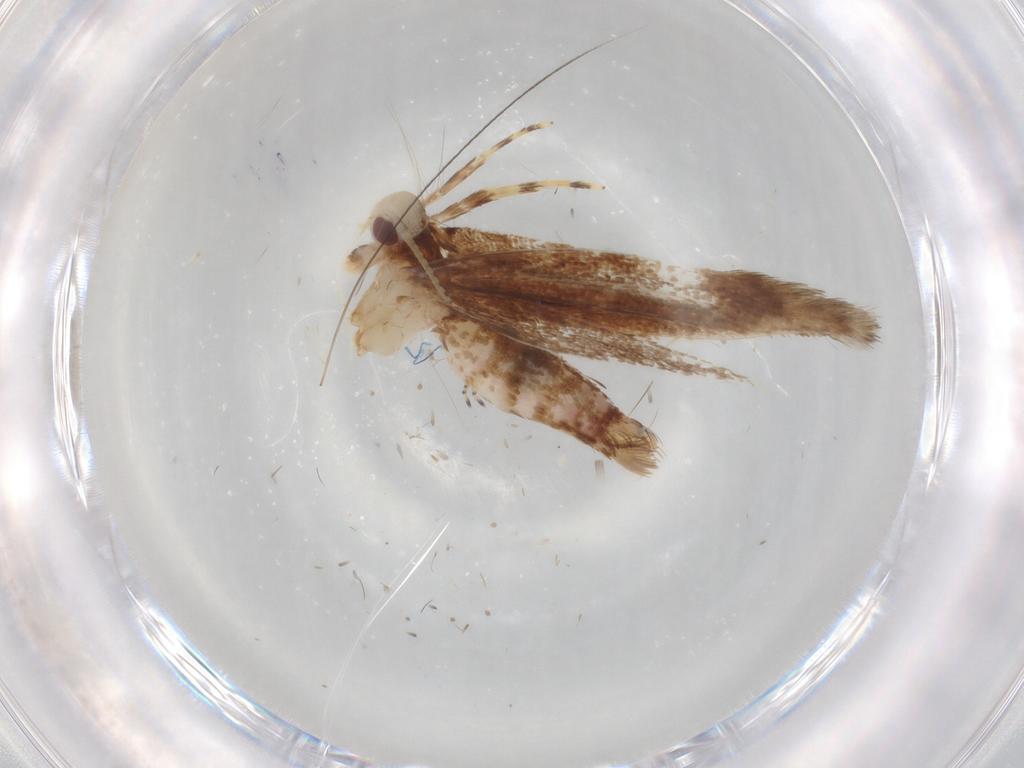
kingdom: Animalia
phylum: Arthropoda
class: Insecta
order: Lepidoptera
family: Cosmopterigidae
